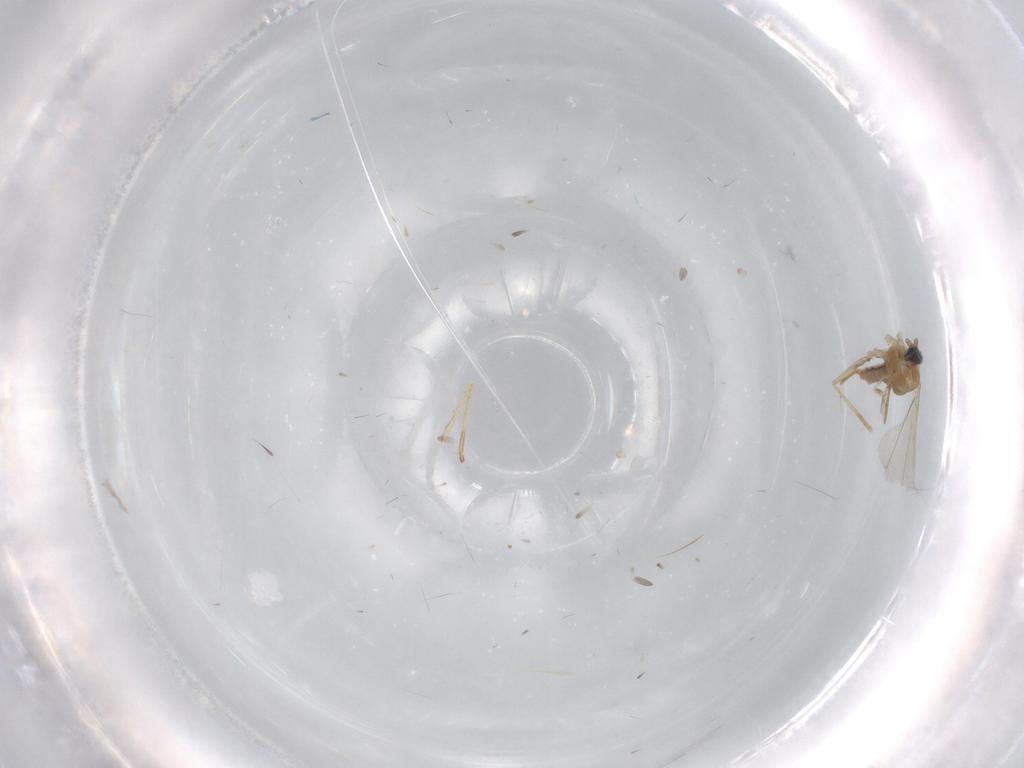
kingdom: Animalia
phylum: Arthropoda
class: Insecta
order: Diptera
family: Cecidomyiidae
